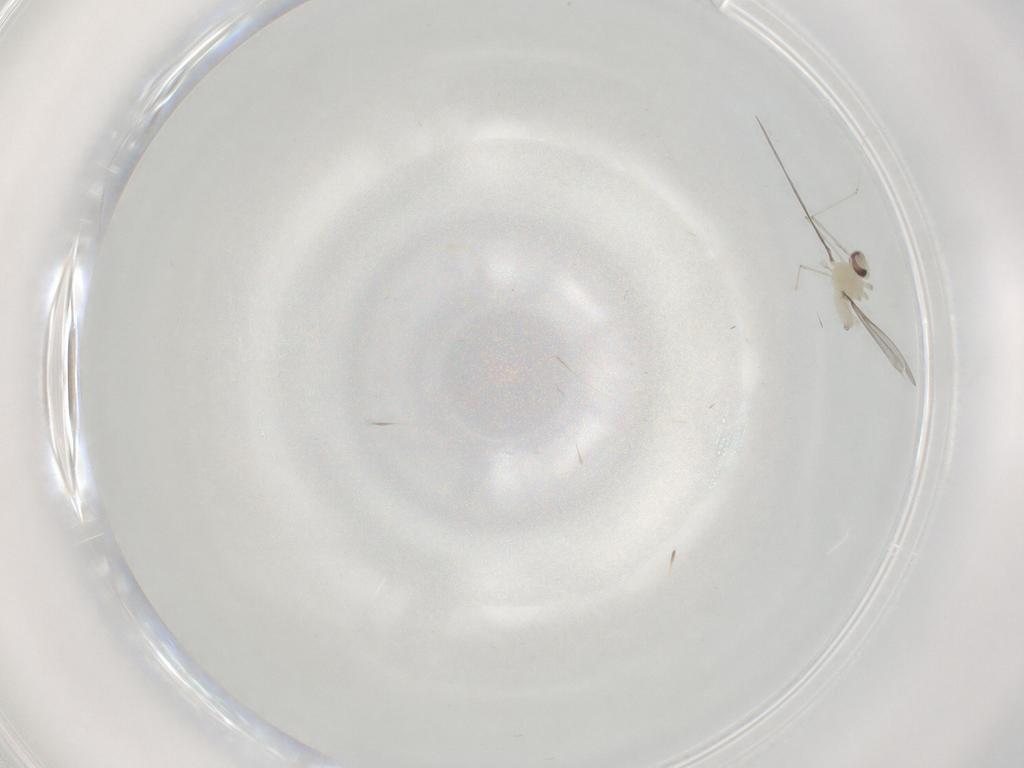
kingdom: Animalia
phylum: Arthropoda
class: Insecta
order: Diptera
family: Cecidomyiidae
